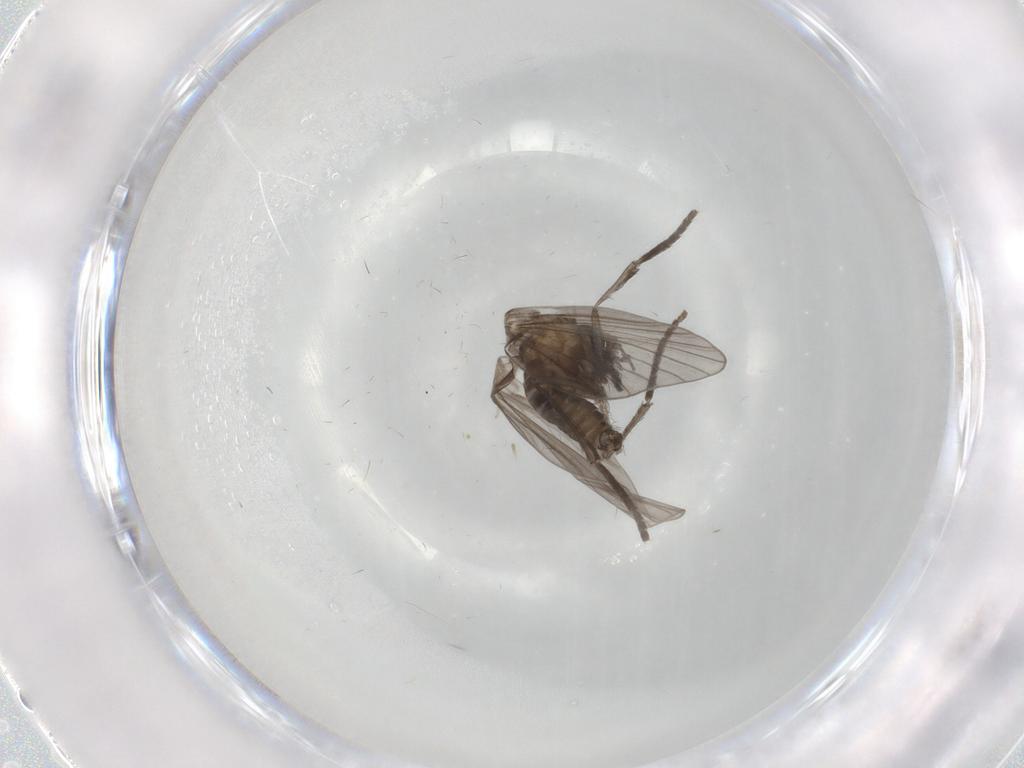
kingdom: Animalia
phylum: Arthropoda
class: Insecta
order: Diptera
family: Psychodidae
